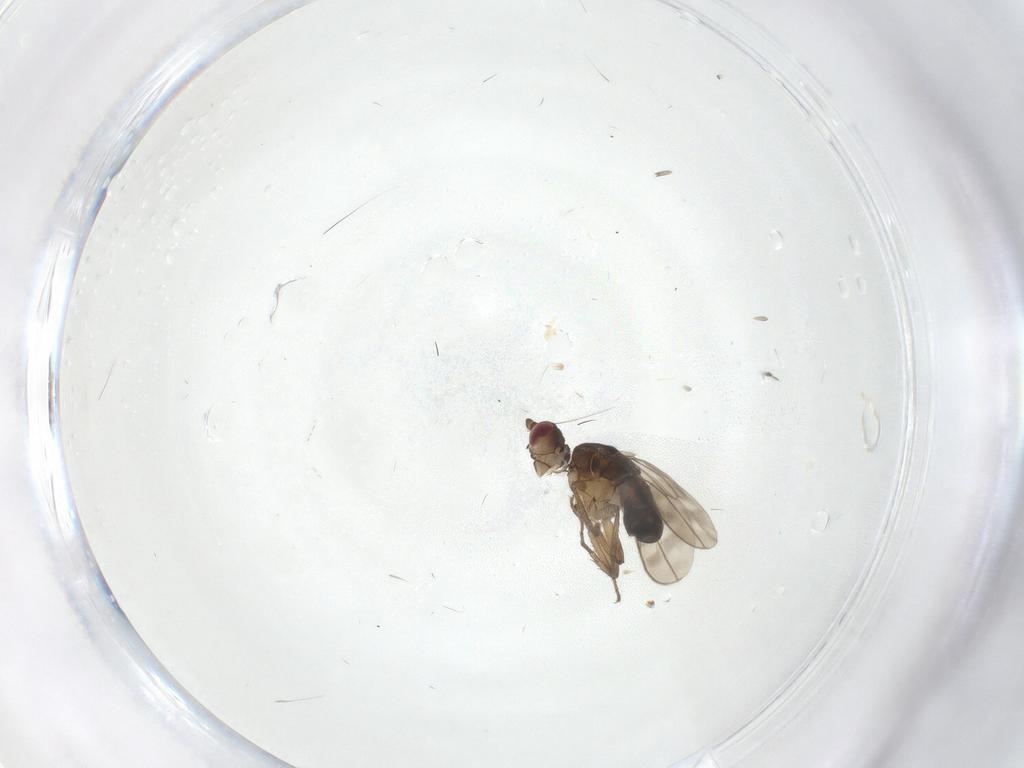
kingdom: Animalia
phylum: Arthropoda
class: Insecta
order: Diptera
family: Sphaeroceridae
